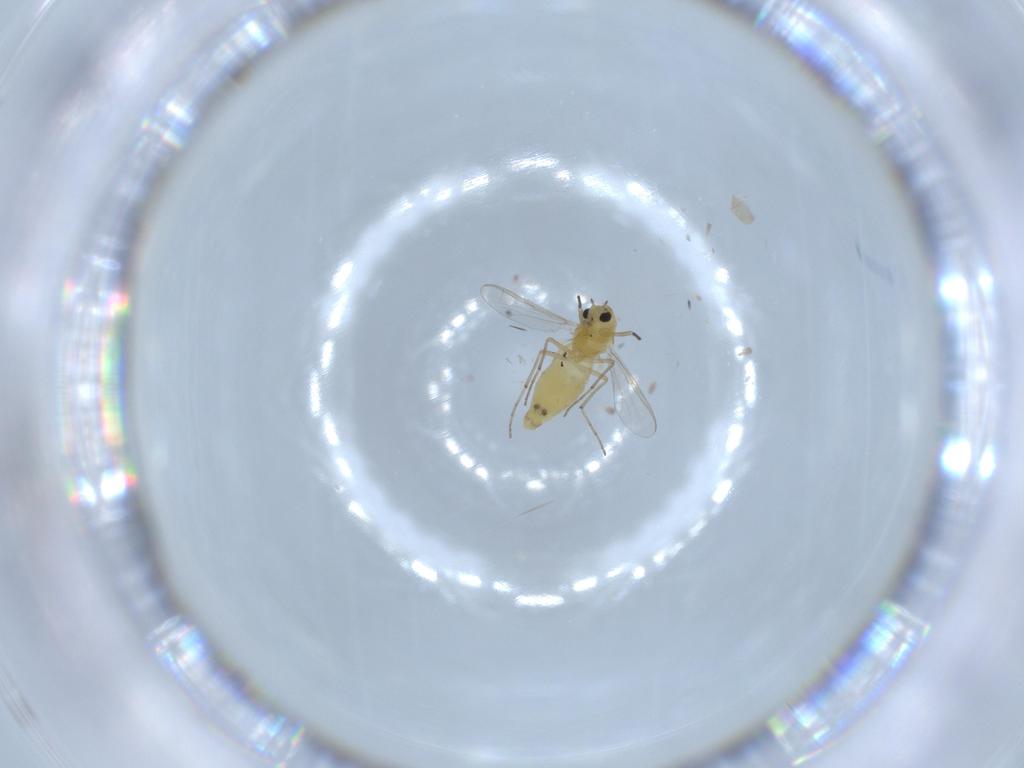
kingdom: Animalia
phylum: Arthropoda
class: Insecta
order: Diptera
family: Chironomidae
